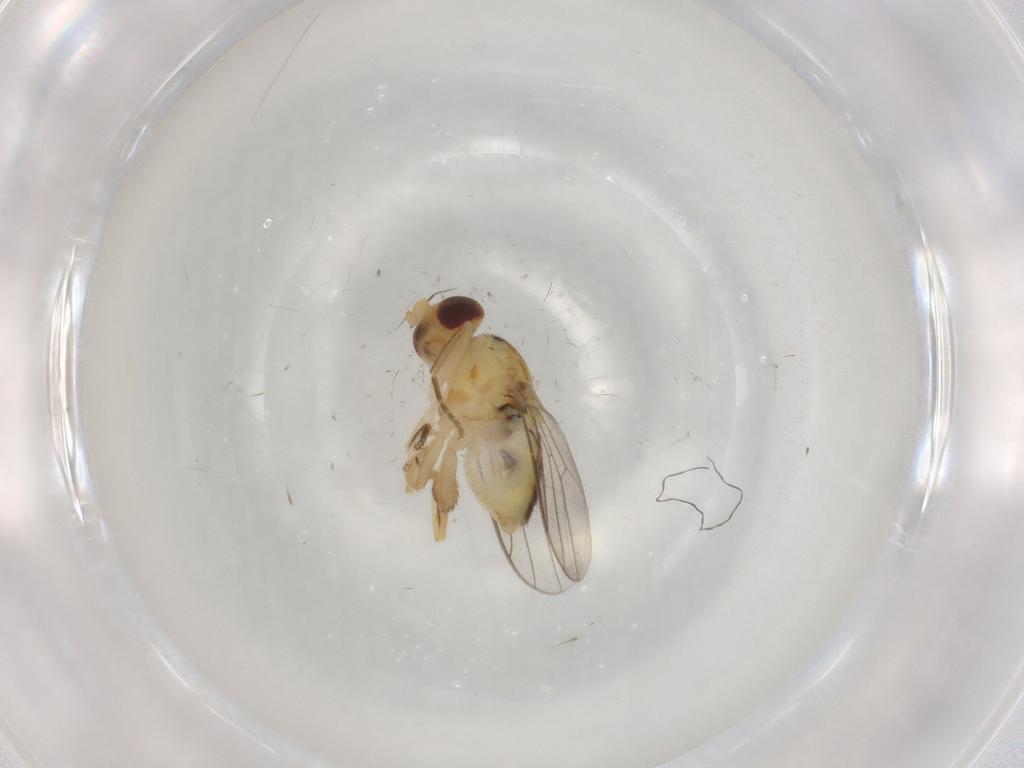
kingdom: Animalia
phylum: Arthropoda
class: Insecta
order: Diptera
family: Chloropidae
